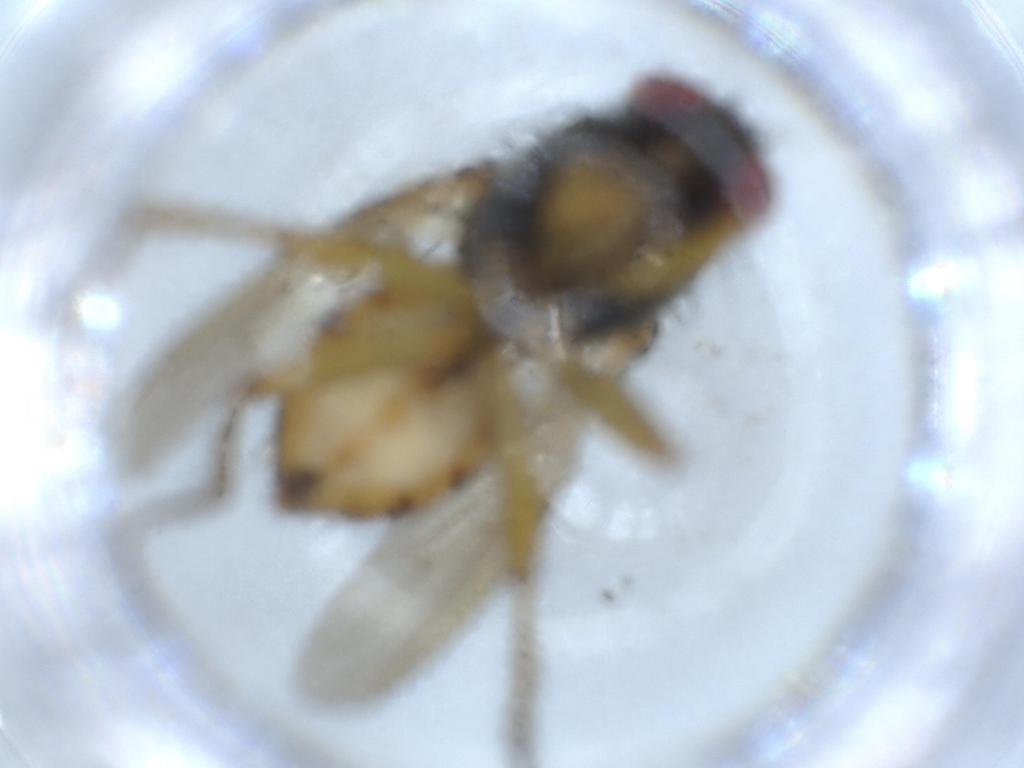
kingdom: Animalia
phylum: Arthropoda
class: Insecta
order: Diptera
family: Cecidomyiidae
